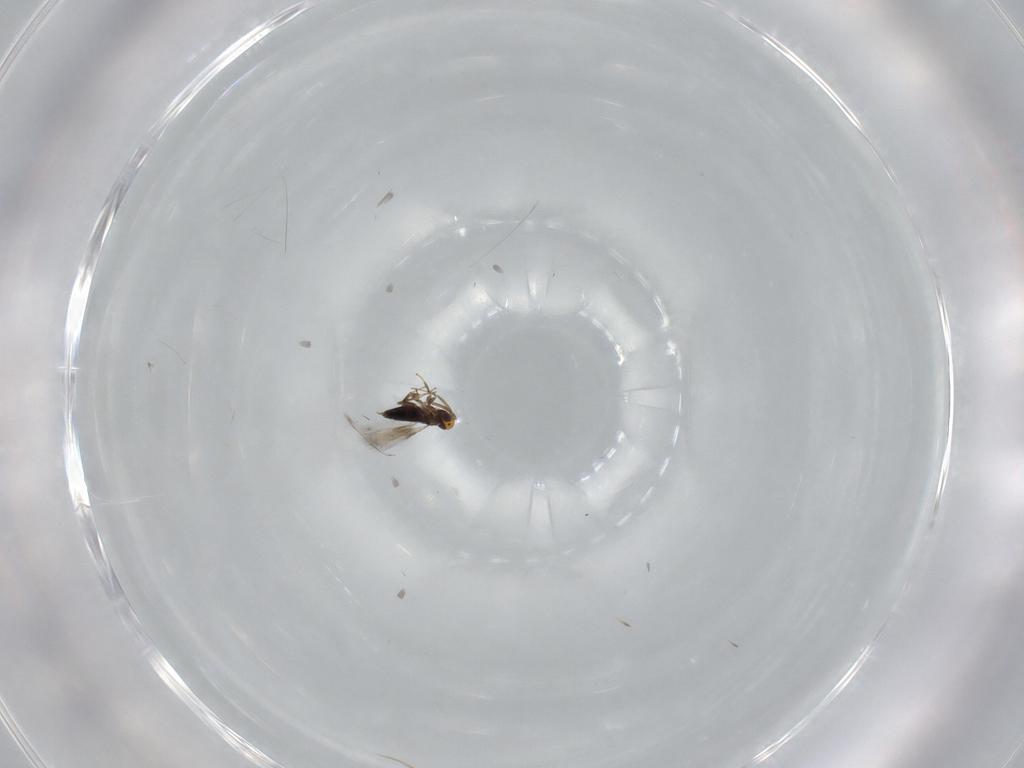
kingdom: Animalia
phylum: Arthropoda
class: Insecta
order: Hymenoptera
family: Signiphoridae
